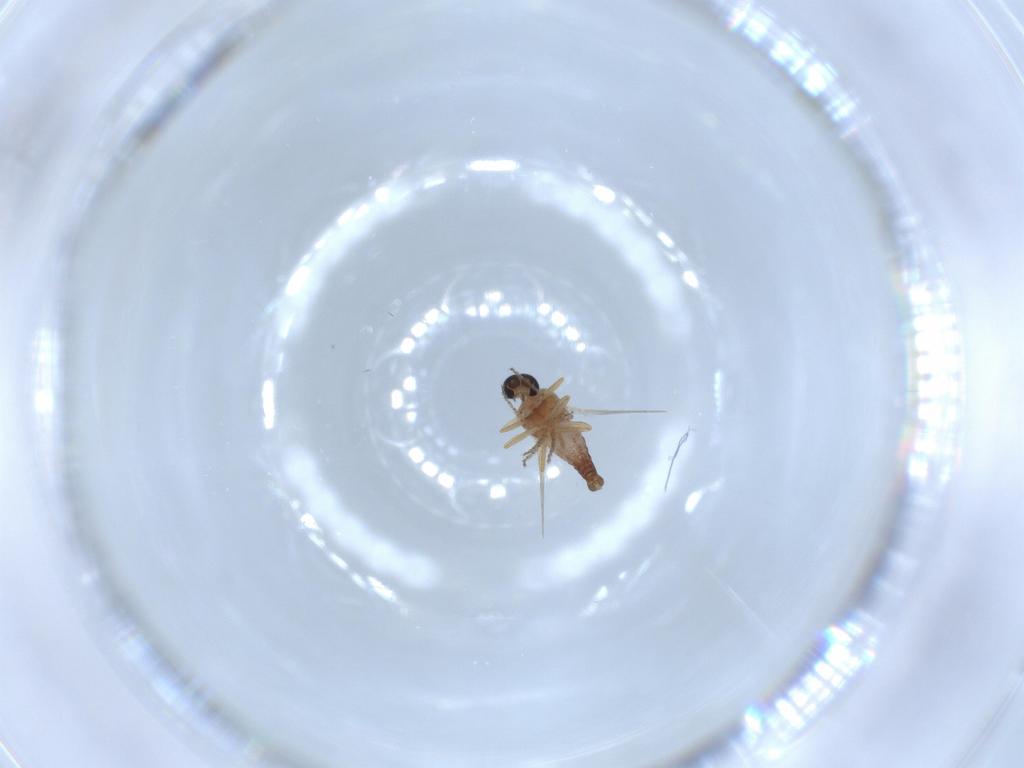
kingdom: Animalia
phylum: Arthropoda
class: Insecta
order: Diptera
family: Ceratopogonidae
